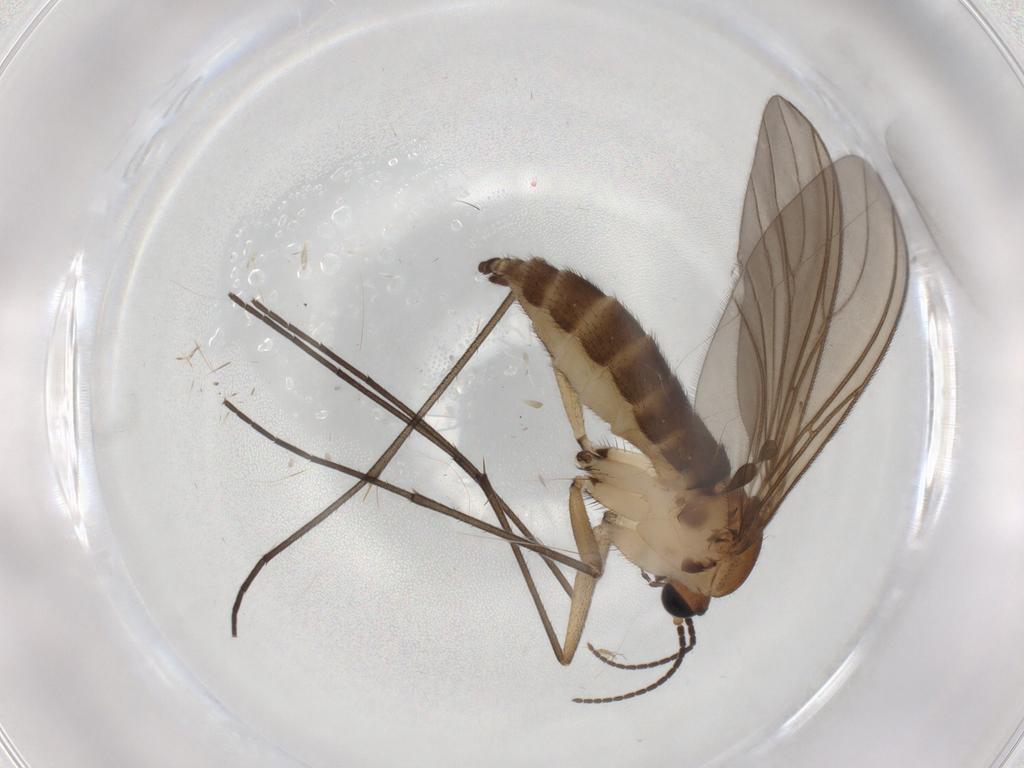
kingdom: Animalia
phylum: Arthropoda
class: Insecta
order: Diptera
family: Sciaridae
